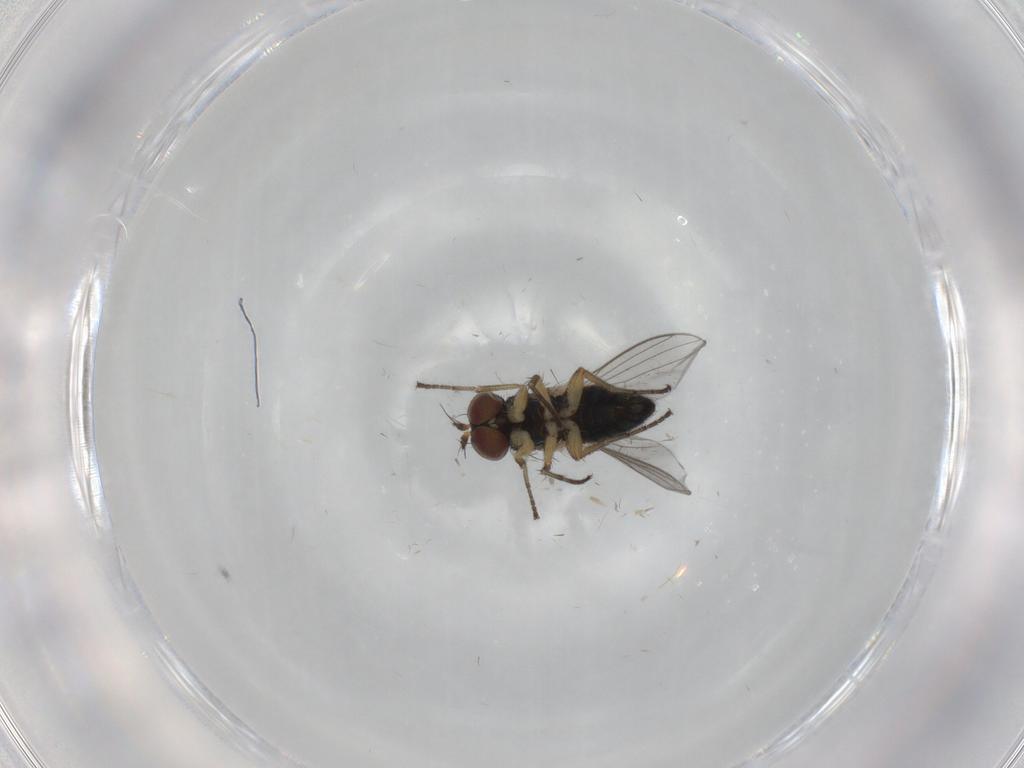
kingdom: Animalia
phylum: Arthropoda
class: Insecta
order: Diptera
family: Dolichopodidae
